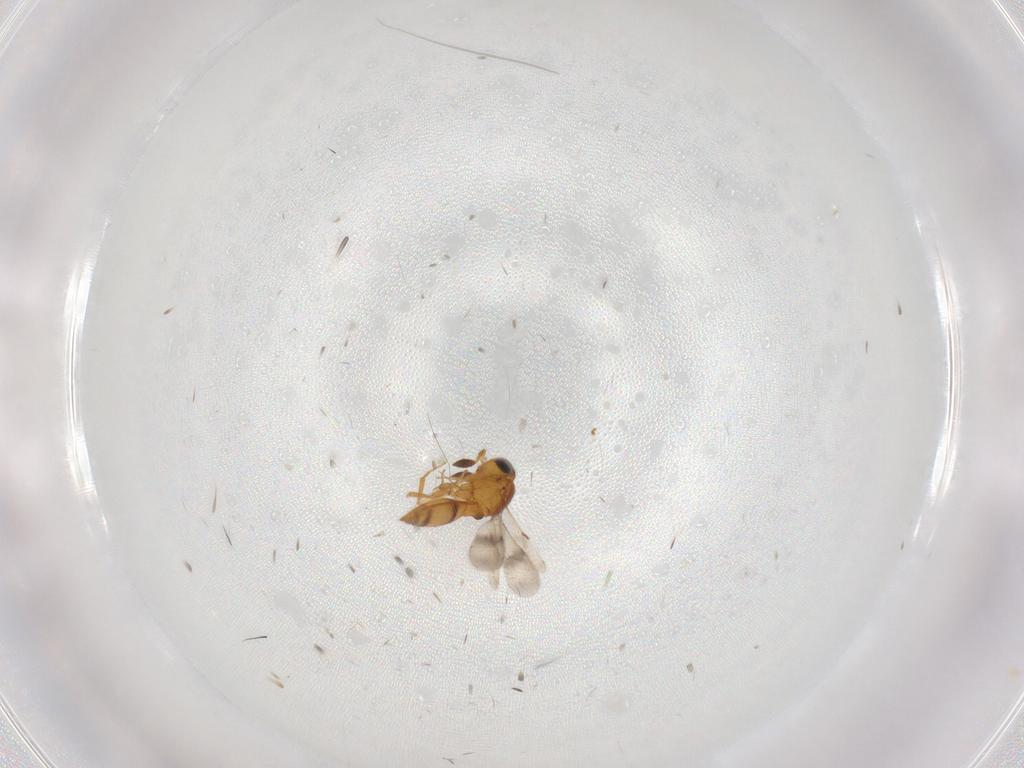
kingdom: Animalia
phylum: Arthropoda
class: Insecta
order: Hymenoptera
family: Scelionidae
